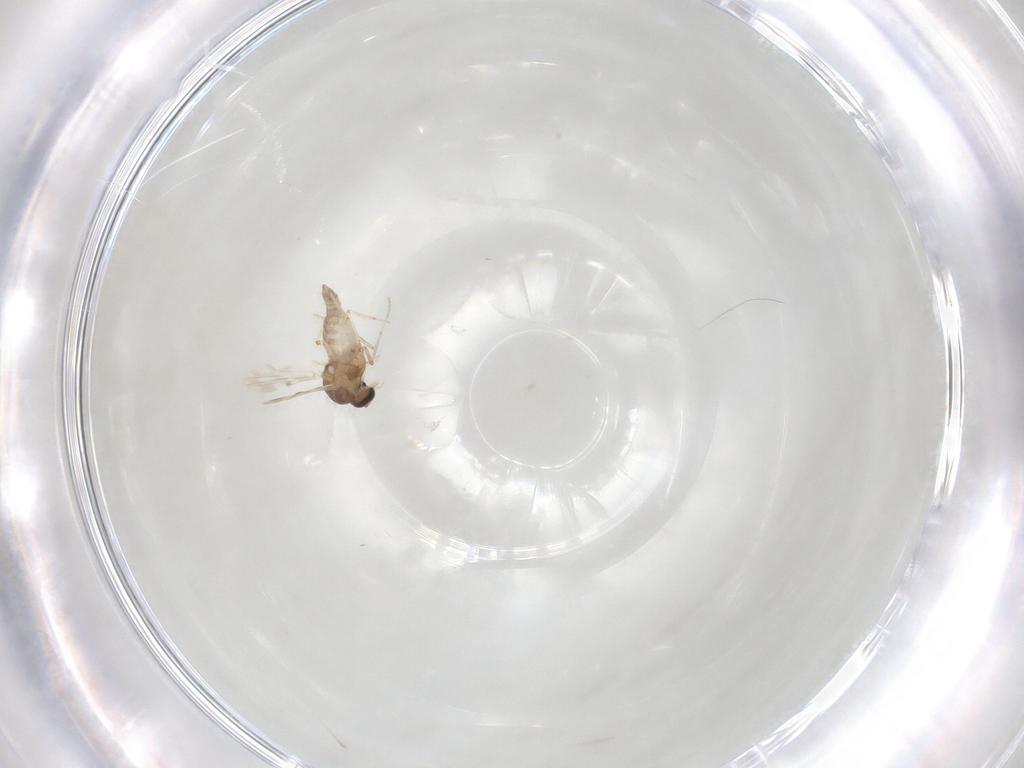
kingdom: Animalia
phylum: Arthropoda
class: Insecta
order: Diptera
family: Ceratopogonidae
